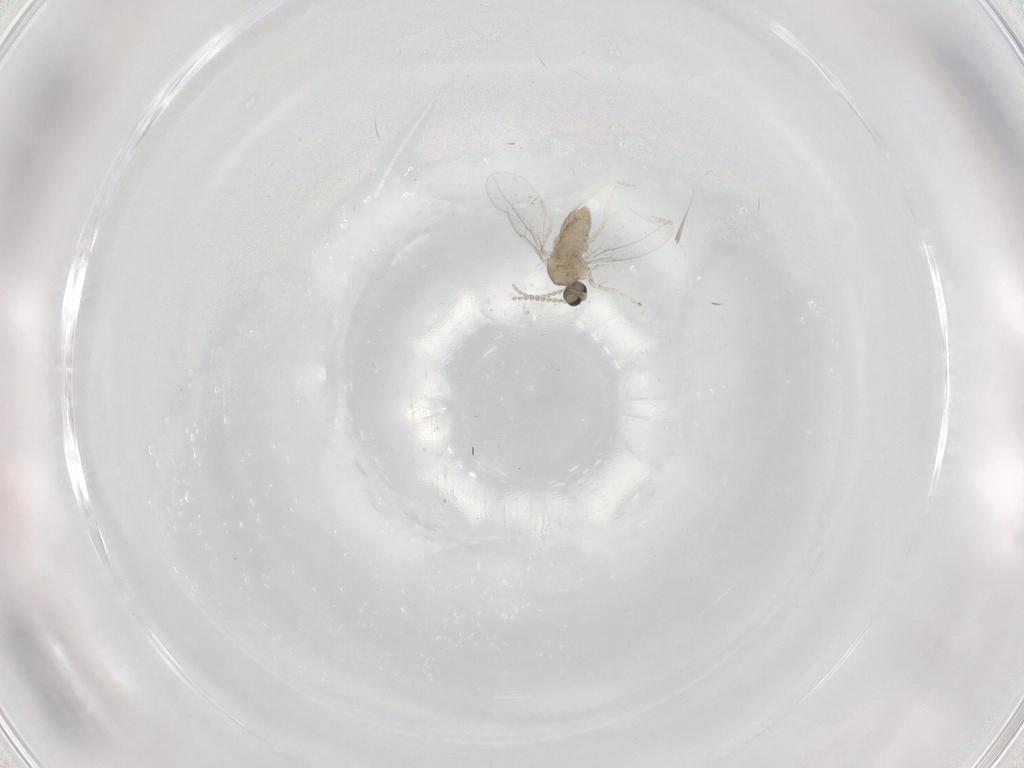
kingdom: Animalia
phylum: Arthropoda
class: Insecta
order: Diptera
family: Cecidomyiidae
